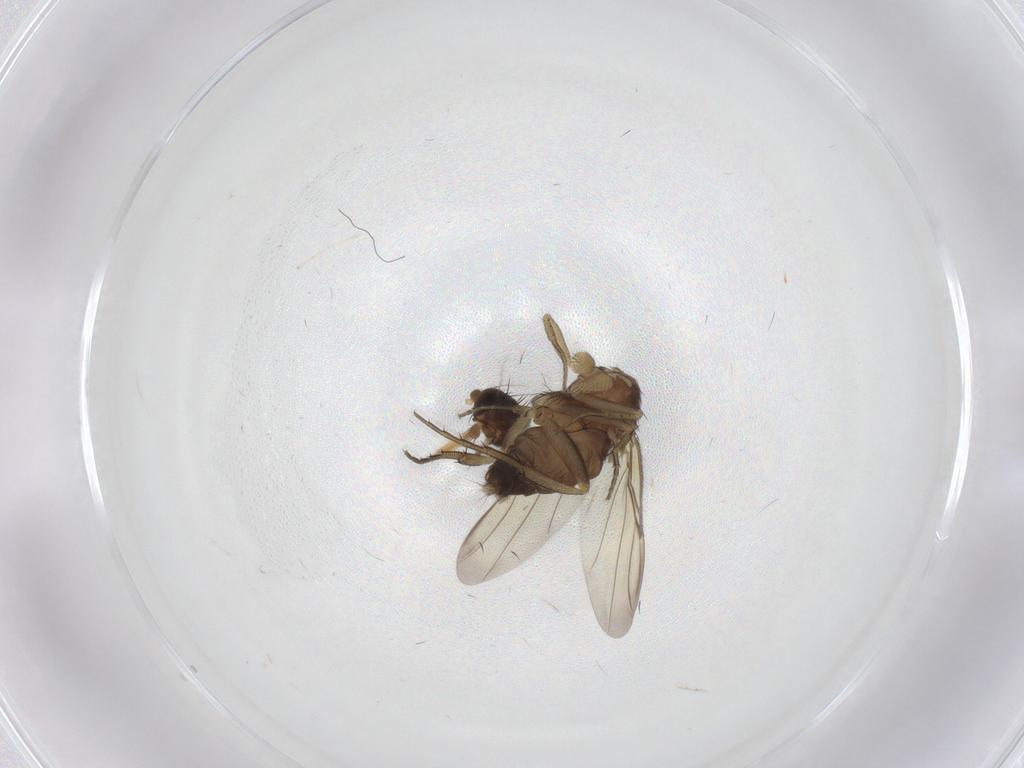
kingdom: Animalia
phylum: Arthropoda
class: Insecta
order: Diptera
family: Phoridae
